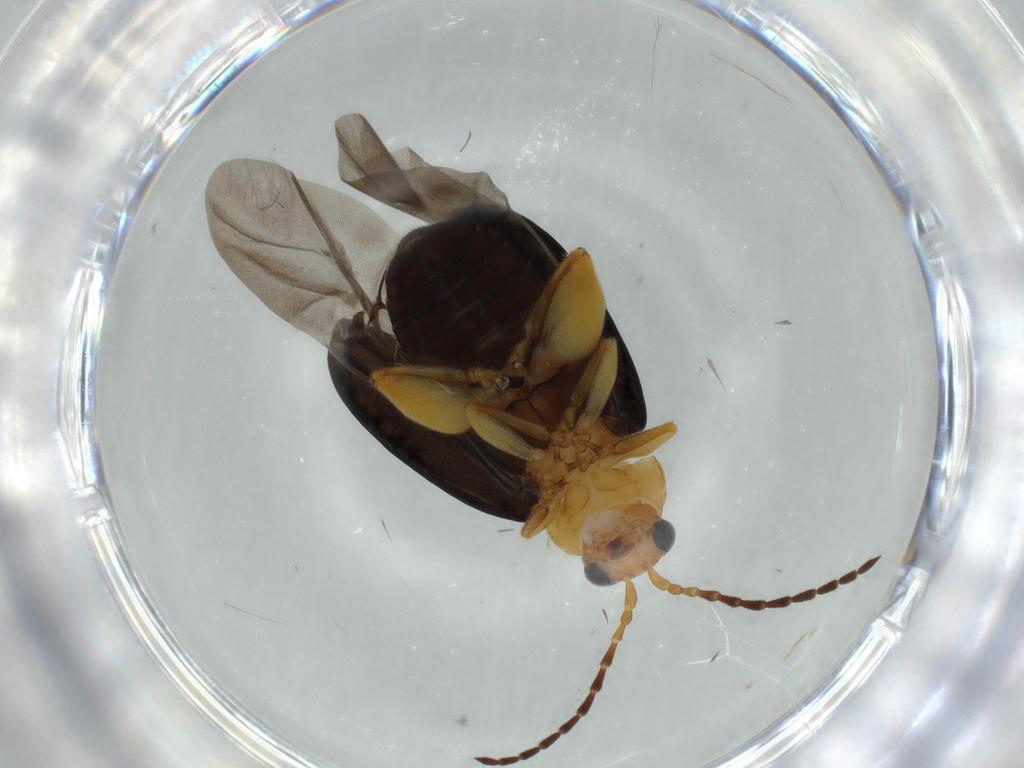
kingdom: Animalia
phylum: Arthropoda
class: Insecta
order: Coleoptera
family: Chrysomelidae
